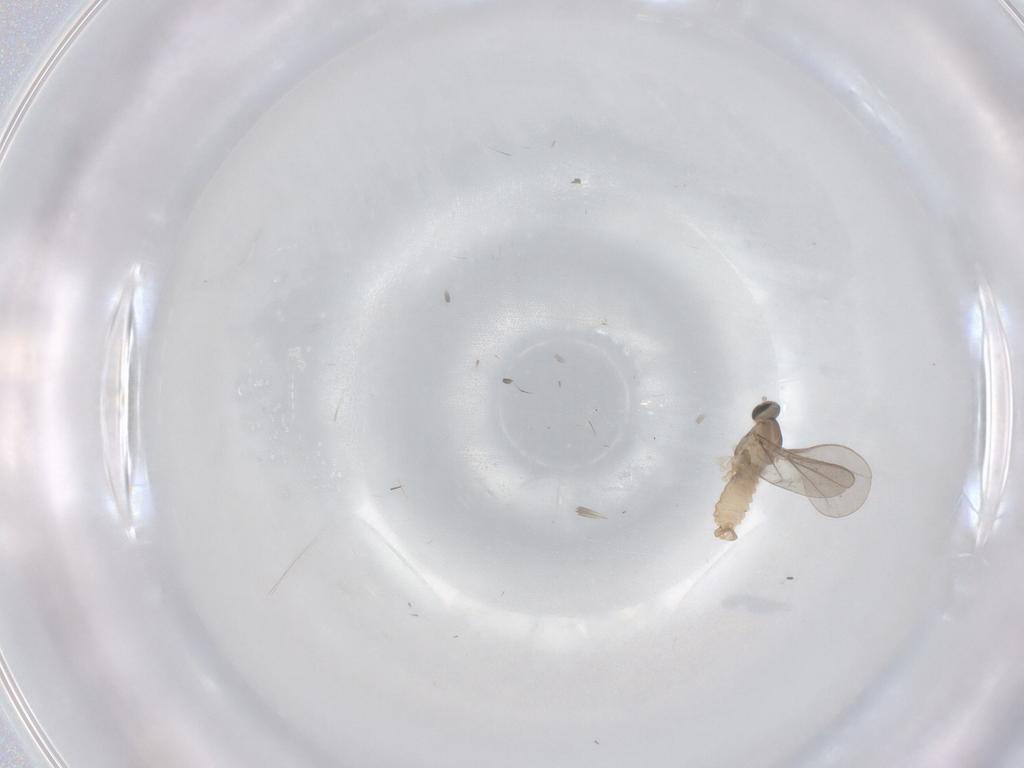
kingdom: Animalia
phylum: Arthropoda
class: Insecta
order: Diptera
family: Cecidomyiidae
